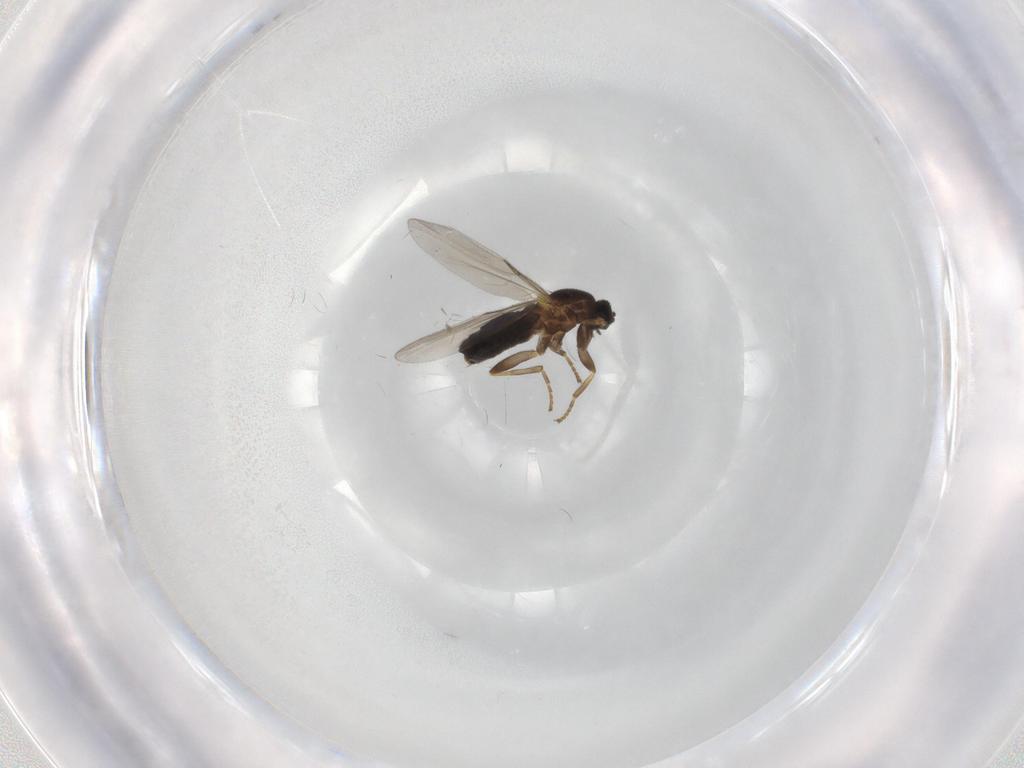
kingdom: Animalia
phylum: Arthropoda
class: Insecta
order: Diptera
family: Scatopsidae
